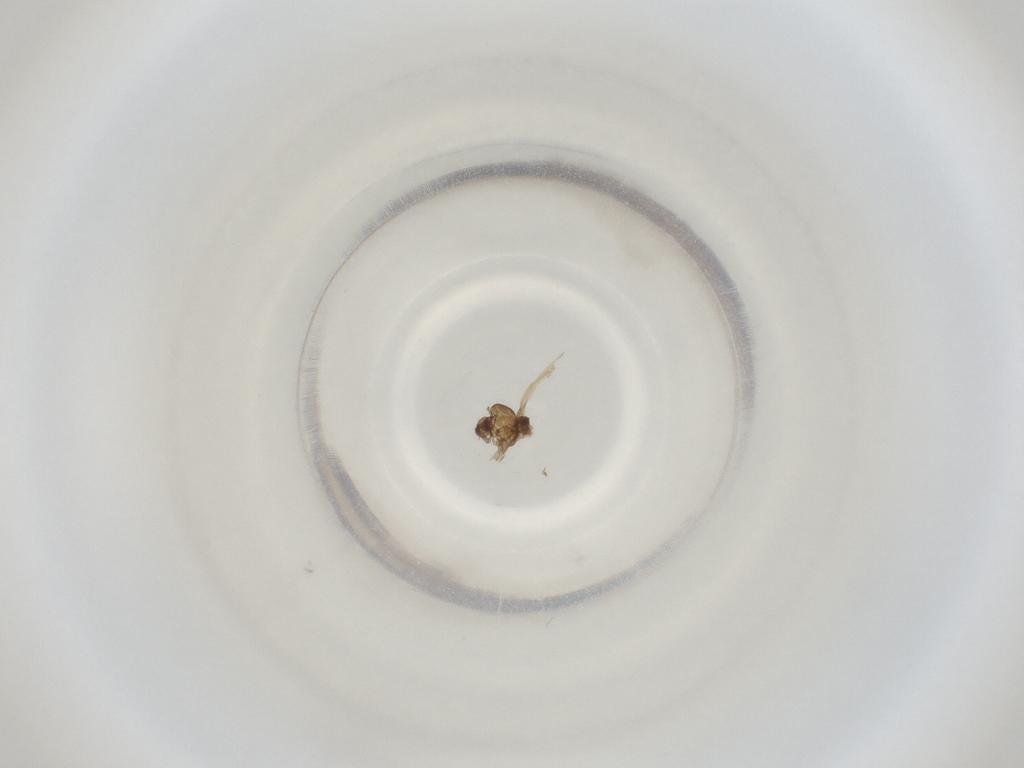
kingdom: Animalia
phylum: Arthropoda
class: Insecta
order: Diptera
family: Cecidomyiidae
